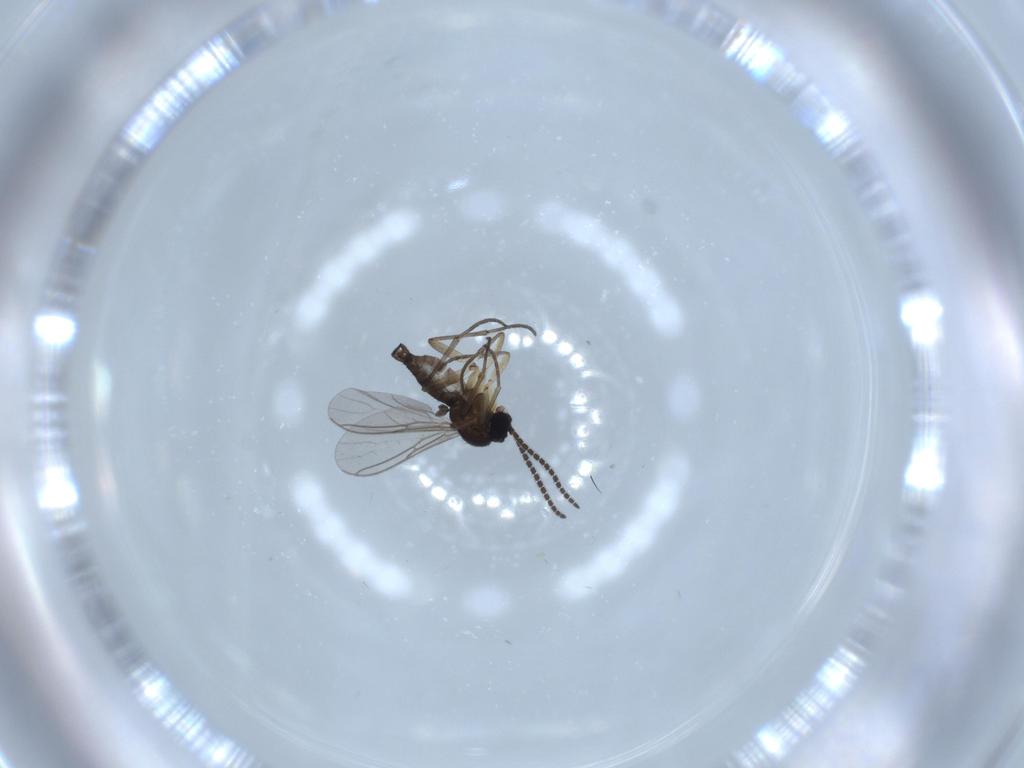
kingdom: Animalia
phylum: Arthropoda
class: Insecta
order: Diptera
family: Sciaridae
